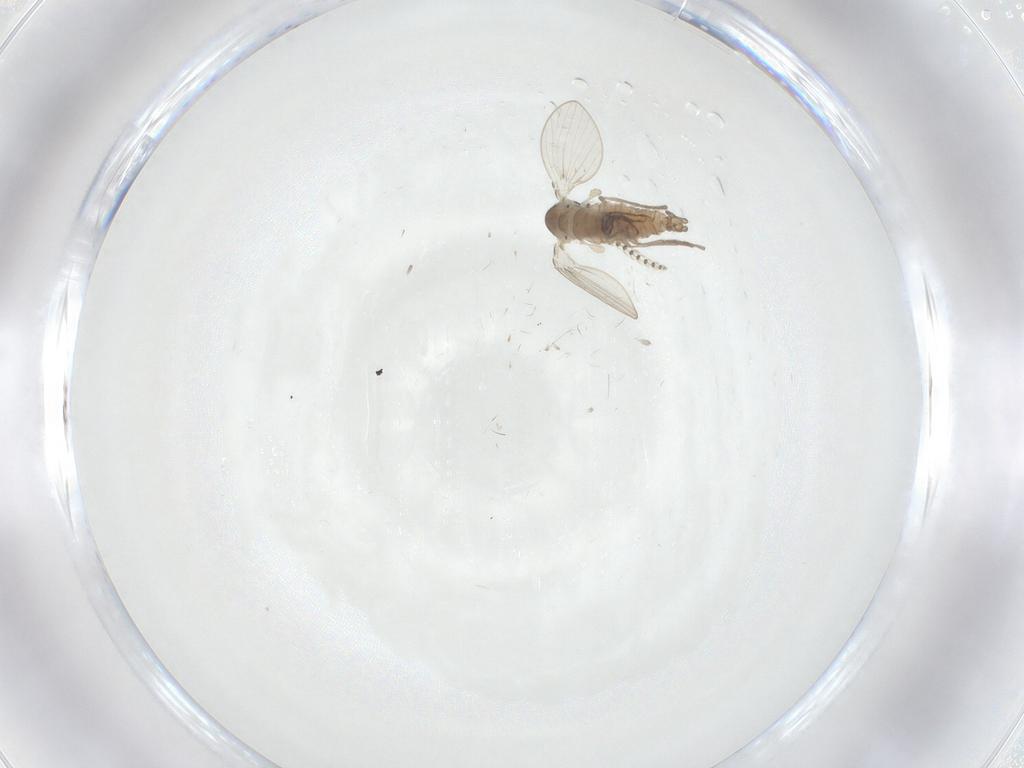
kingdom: Animalia
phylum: Arthropoda
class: Insecta
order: Diptera
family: Psychodidae
